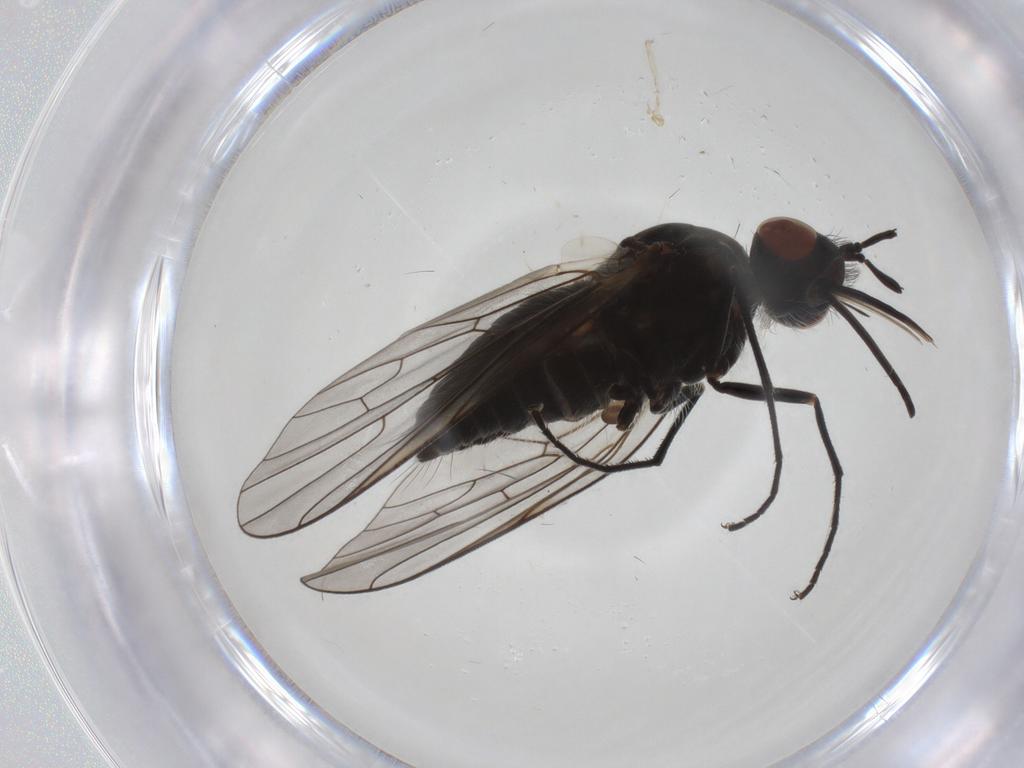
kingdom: Animalia
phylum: Arthropoda
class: Insecta
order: Diptera
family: Bombyliidae
